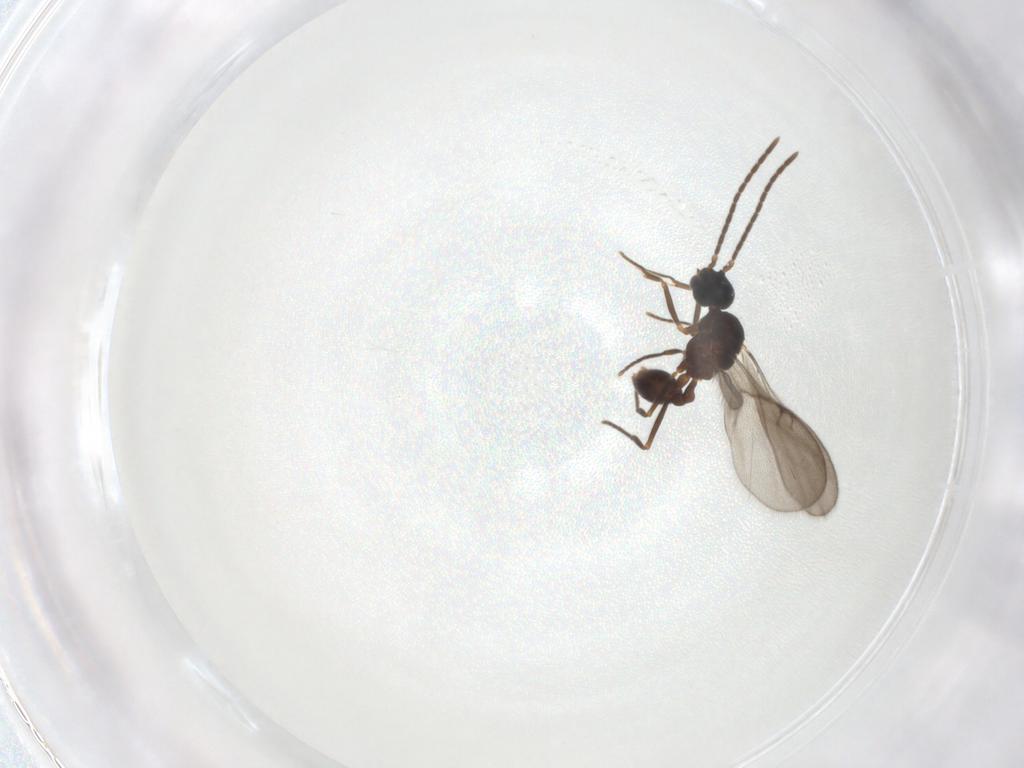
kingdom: Animalia
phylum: Arthropoda
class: Insecta
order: Hymenoptera
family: Formicidae
